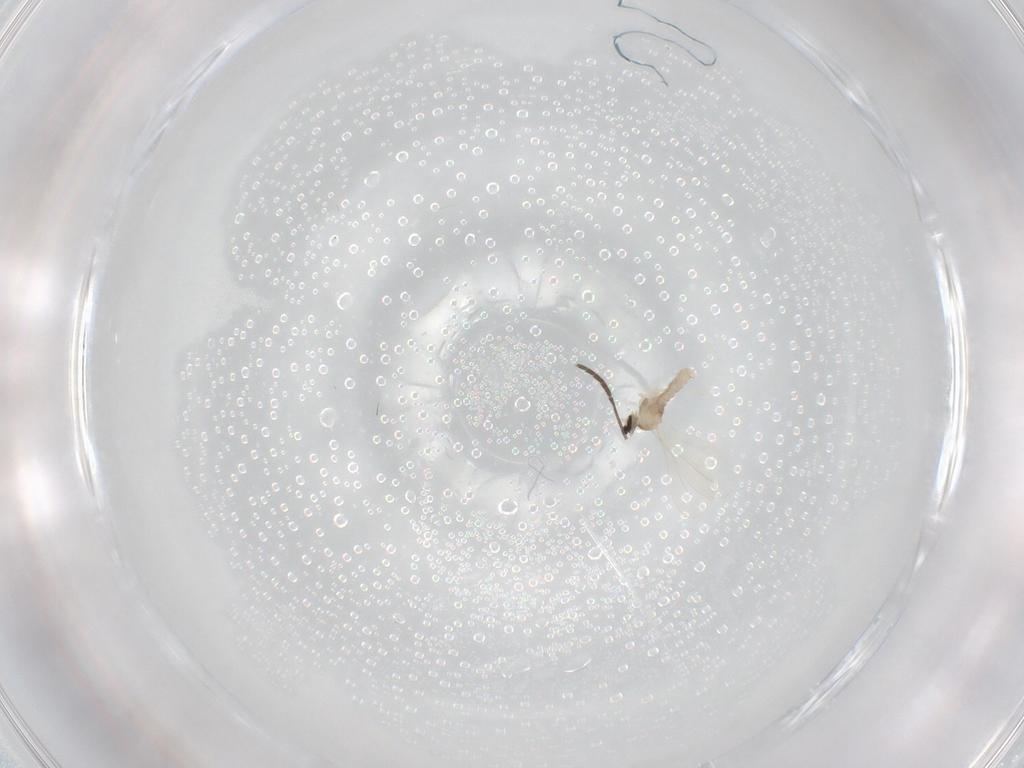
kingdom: Animalia
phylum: Arthropoda
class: Insecta
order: Diptera
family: Cecidomyiidae
